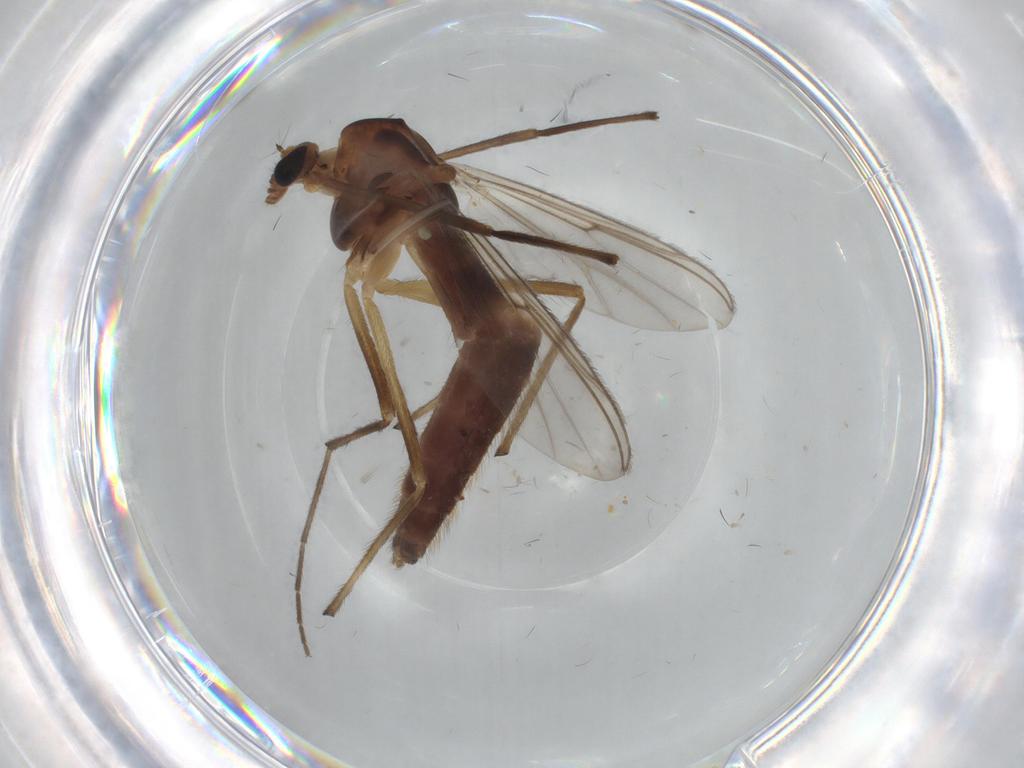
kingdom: Animalia
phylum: Arthropoda
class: Insecta
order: Diptera
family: Chironomidae
